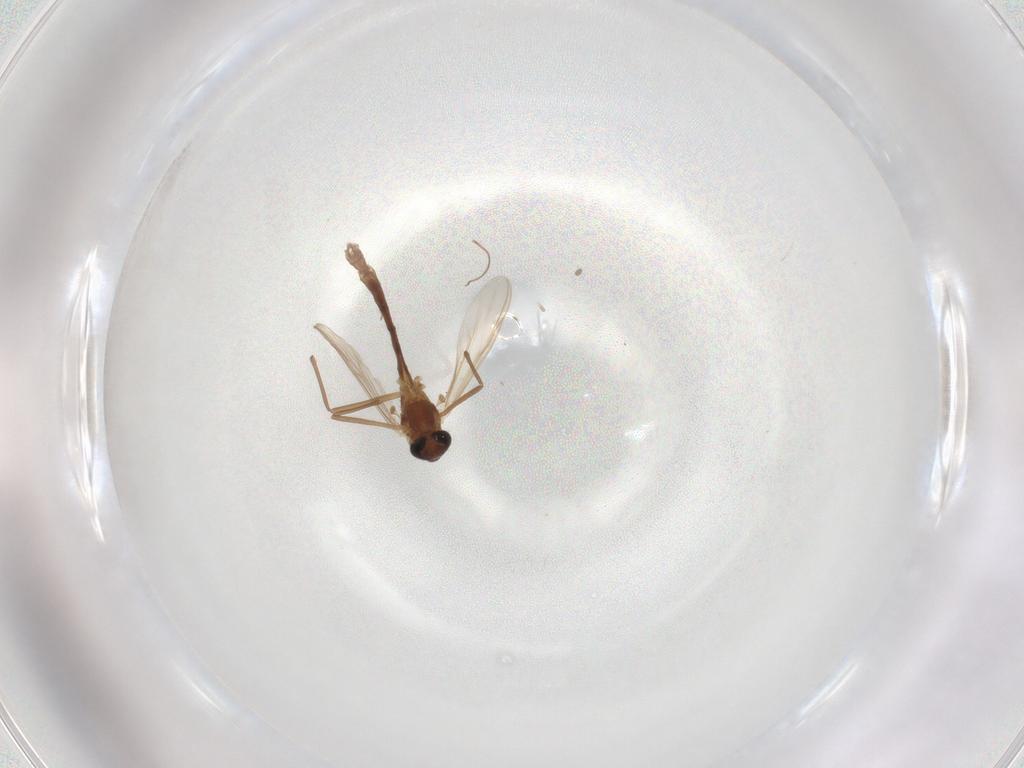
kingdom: Animalia
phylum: Arthropoda
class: Insecta
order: Diptera
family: Chironomidae
